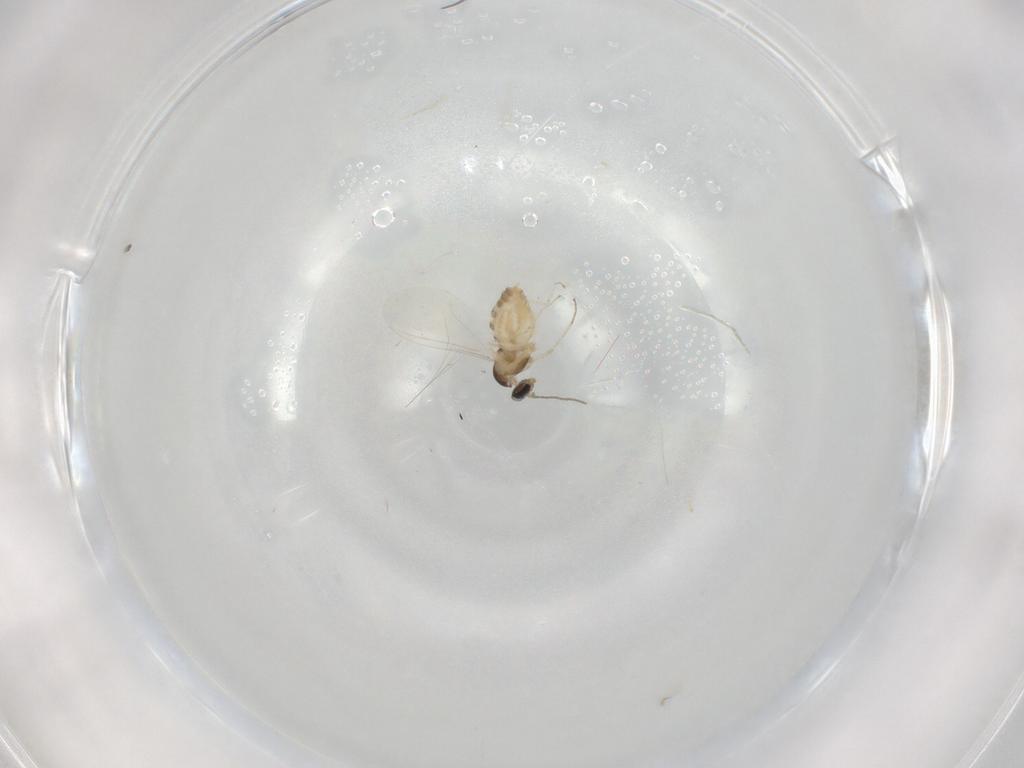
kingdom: Animalia
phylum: Arthropoda
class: Insecta
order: Diptera
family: Cecidomyiidae
